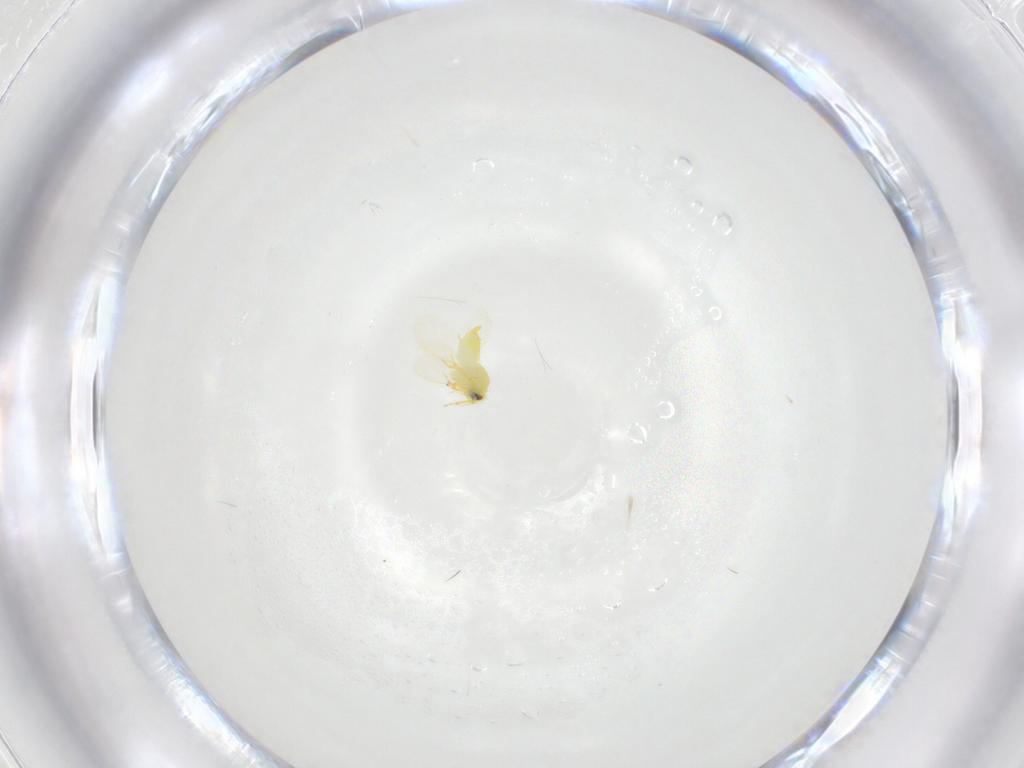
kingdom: Animalia
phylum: Arthropoda
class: Insecta
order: Hemiptera
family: Aleyrodidae
